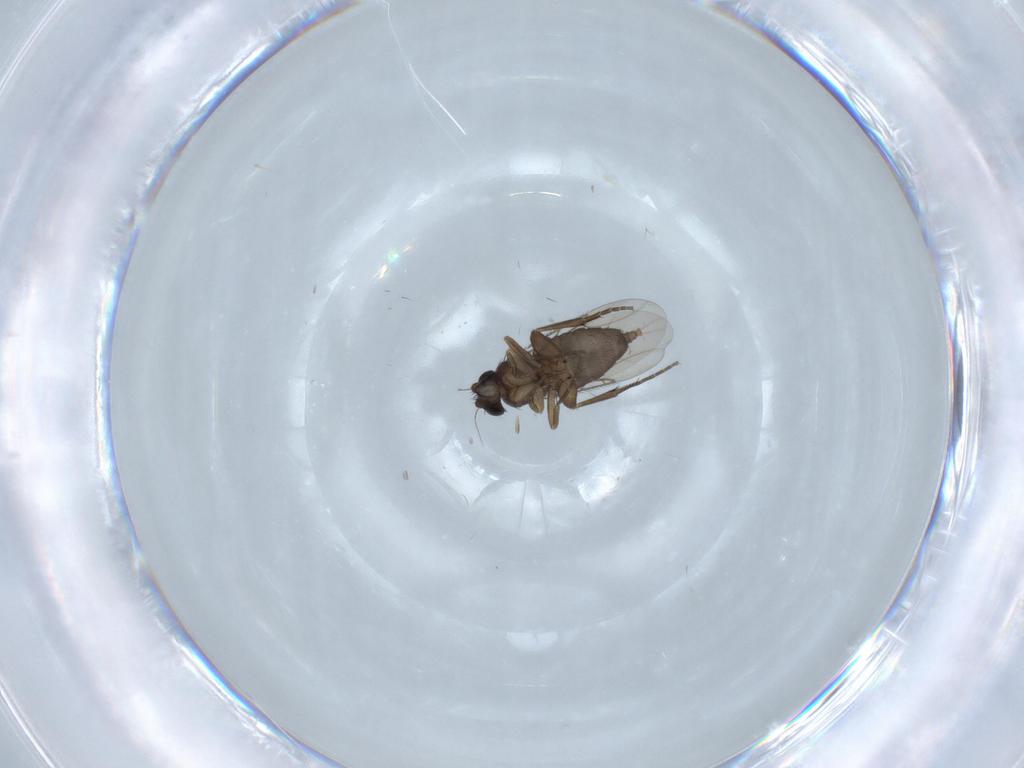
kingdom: Animalia
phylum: Arthropoda
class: Insecta
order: Diptera
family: Phoridae
